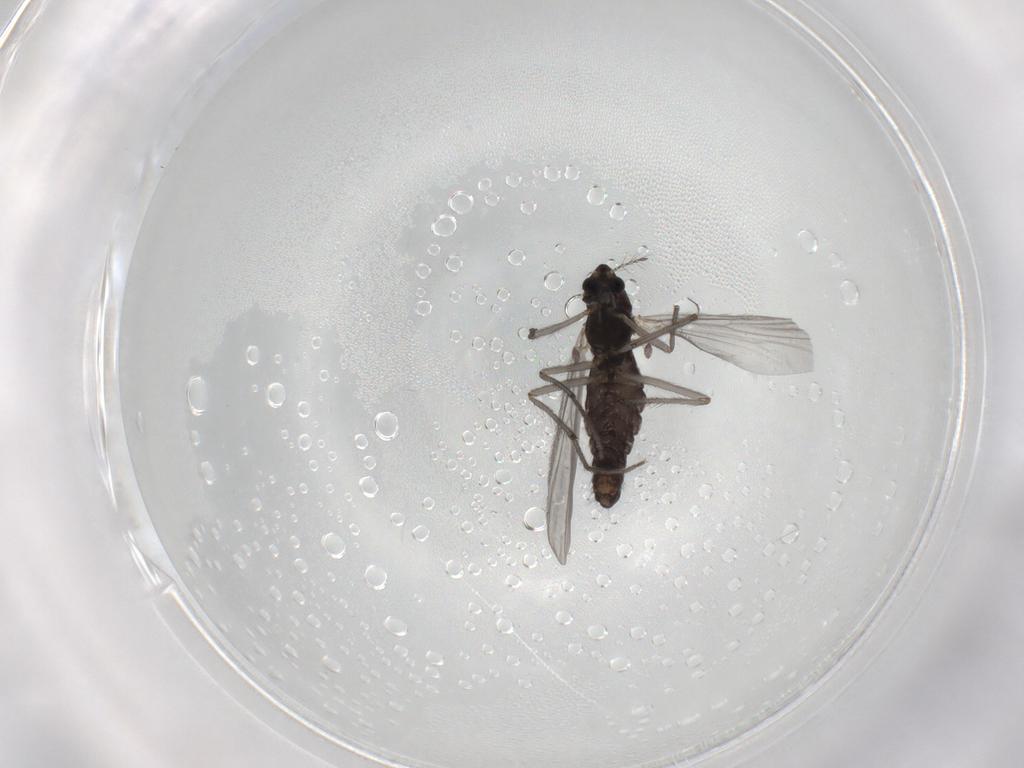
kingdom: Animalia
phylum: Arthropoda
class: Insecta
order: Diptera
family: Chironomidae
